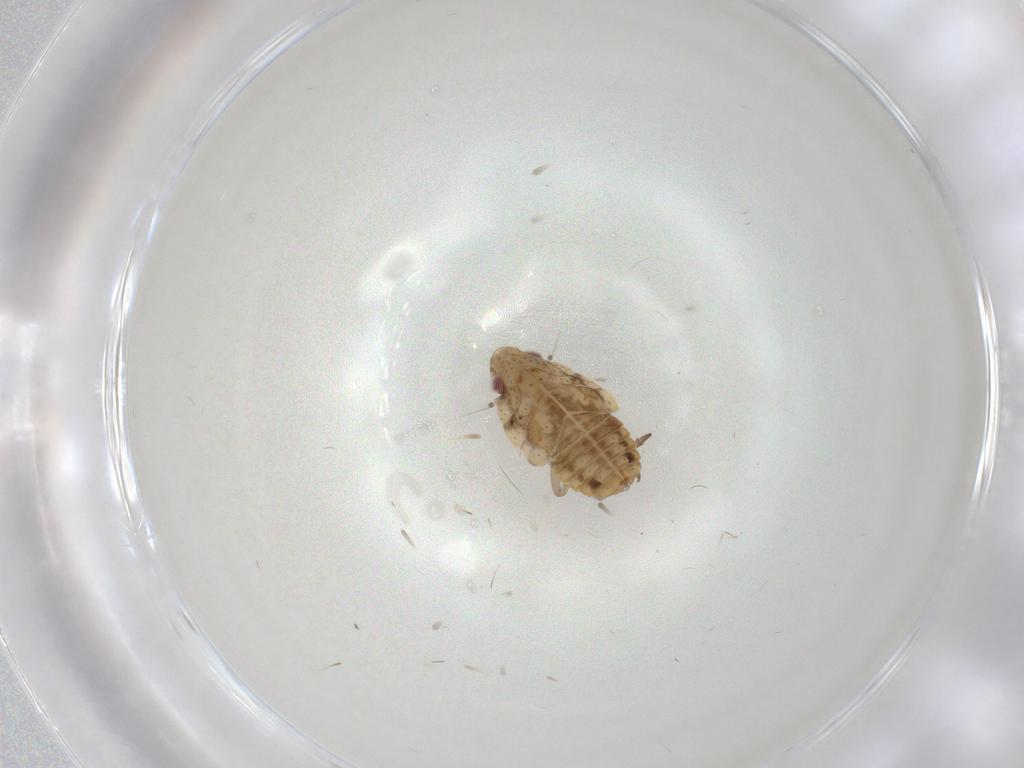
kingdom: Animalia
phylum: Arthropoda
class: Insecta
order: Hemiptera
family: Flatidae
